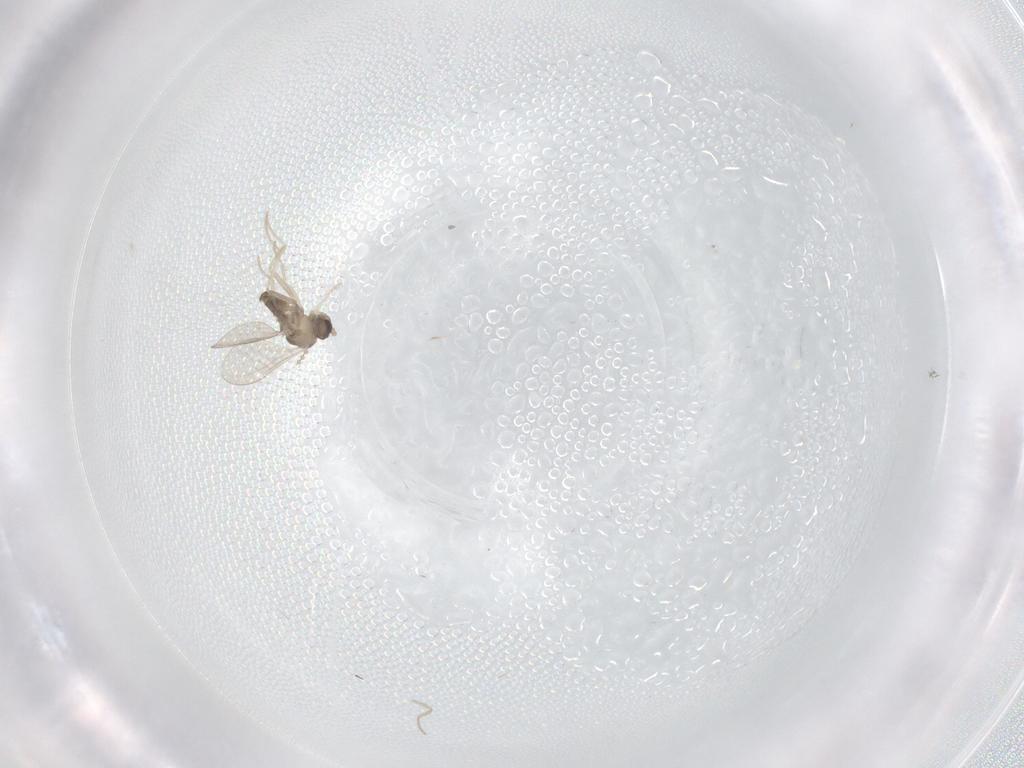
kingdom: Animalia
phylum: Arthropoda
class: Insecta
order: Diptera
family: Cecidomyiidae
